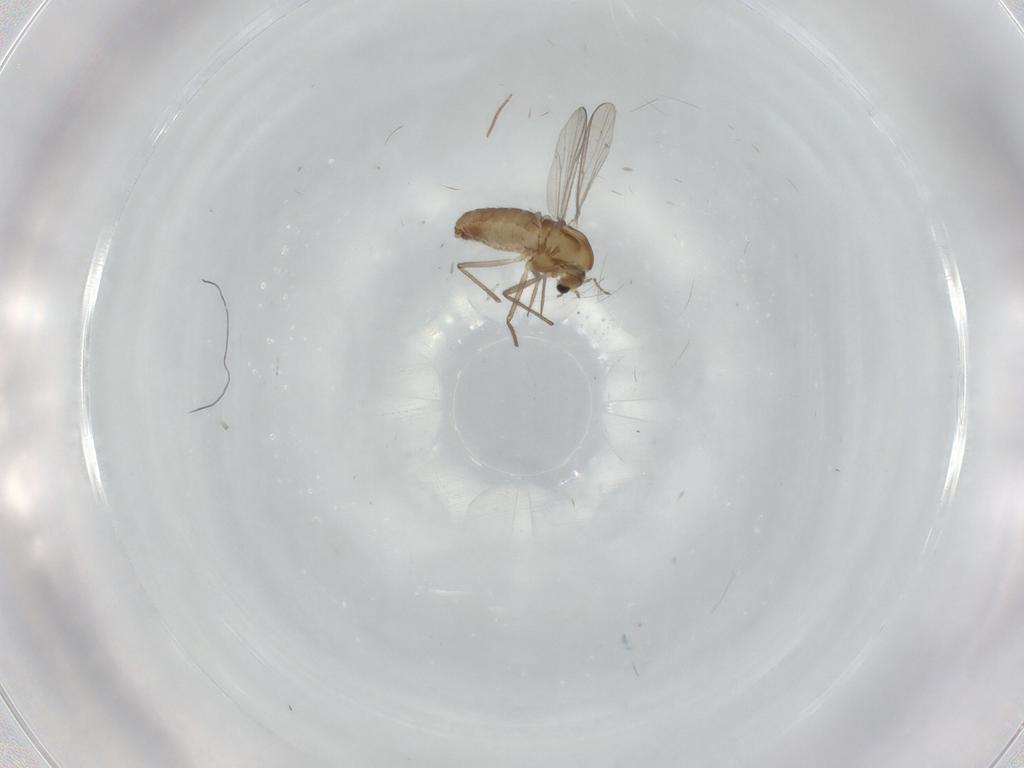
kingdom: Animalia
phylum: Arthropoda
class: Insecta
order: Diptera
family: Chironomidae
